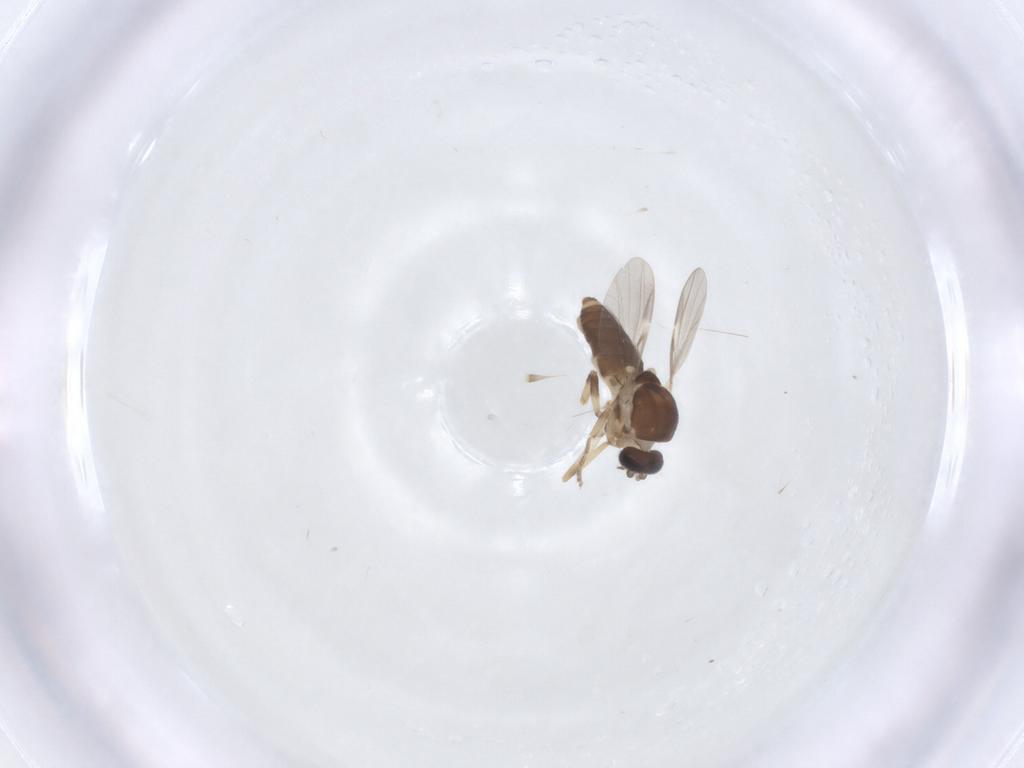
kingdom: Animalia
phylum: Arthropoda
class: Insecta
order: Diptera
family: Ceratopogonidae
